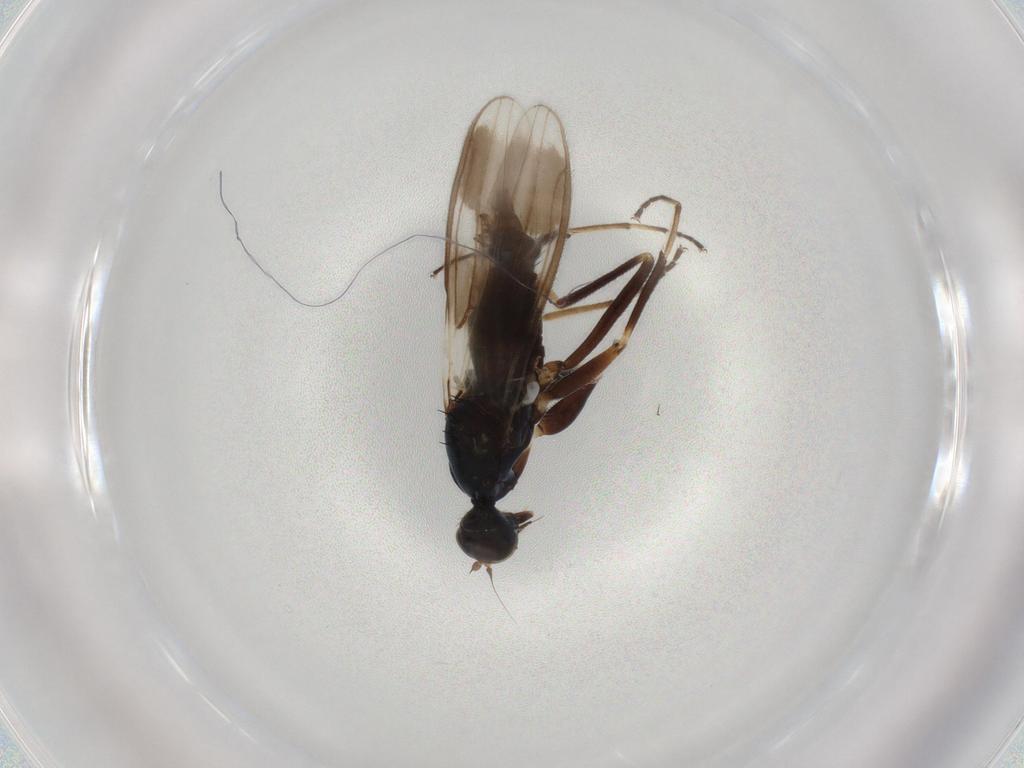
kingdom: Animalia
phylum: Arthropoda
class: Insecta
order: Diptera
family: Hybotidae
